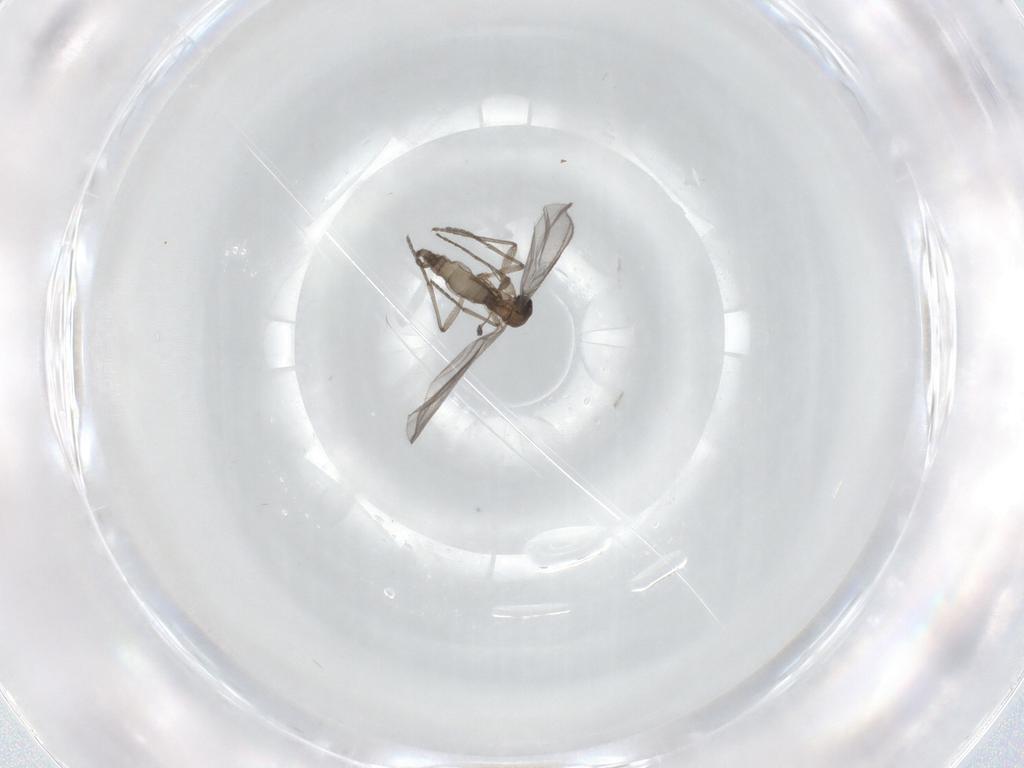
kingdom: Animalia
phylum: Arthropoda
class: Insecta
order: Diptera
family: Sciaridae
